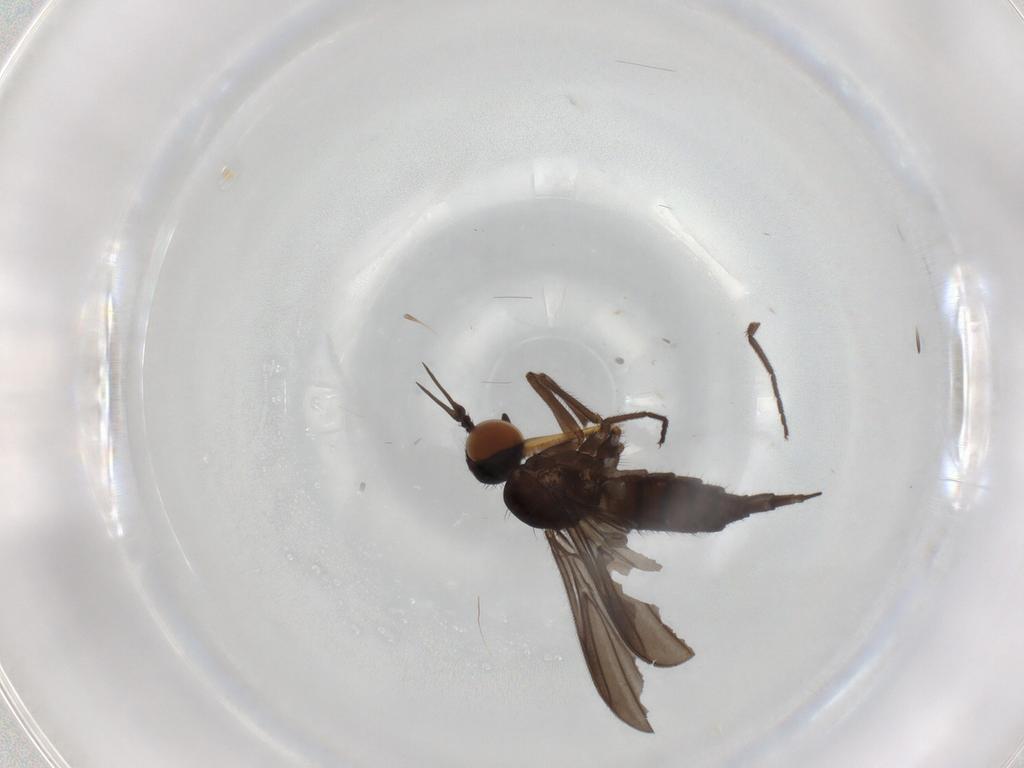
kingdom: Animalia
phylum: Arthropoda
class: Insecta
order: Diptera
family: Empididae
